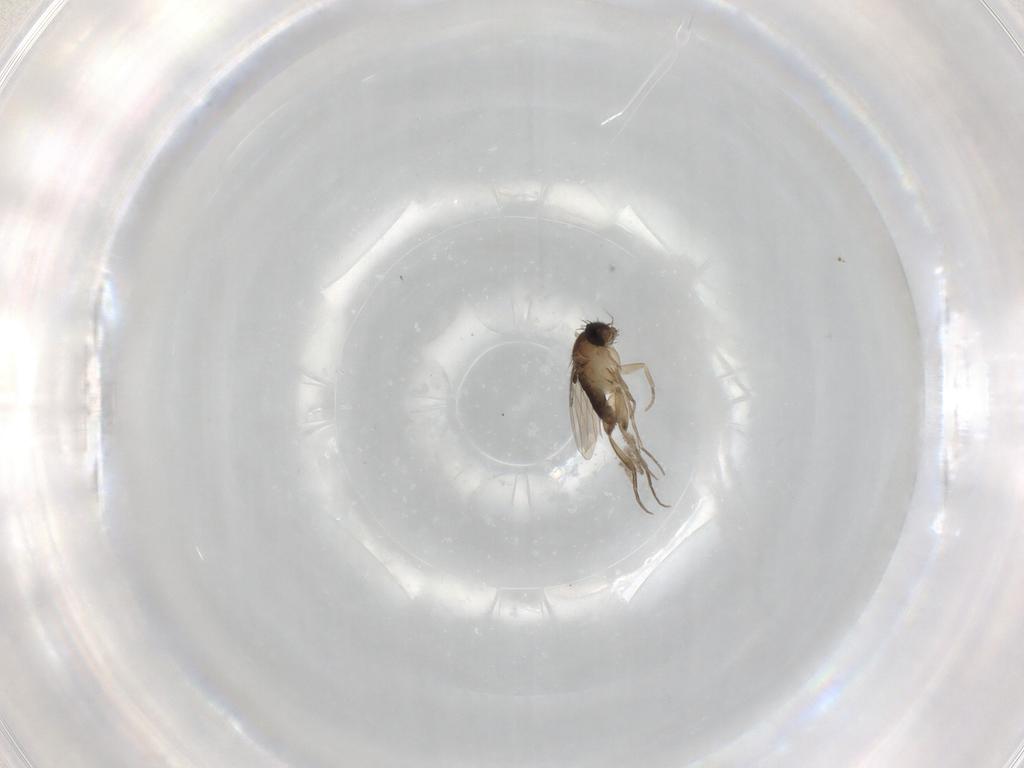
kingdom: Animalia
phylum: Arthropoda
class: Insecta
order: Diptera
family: Phoridae
